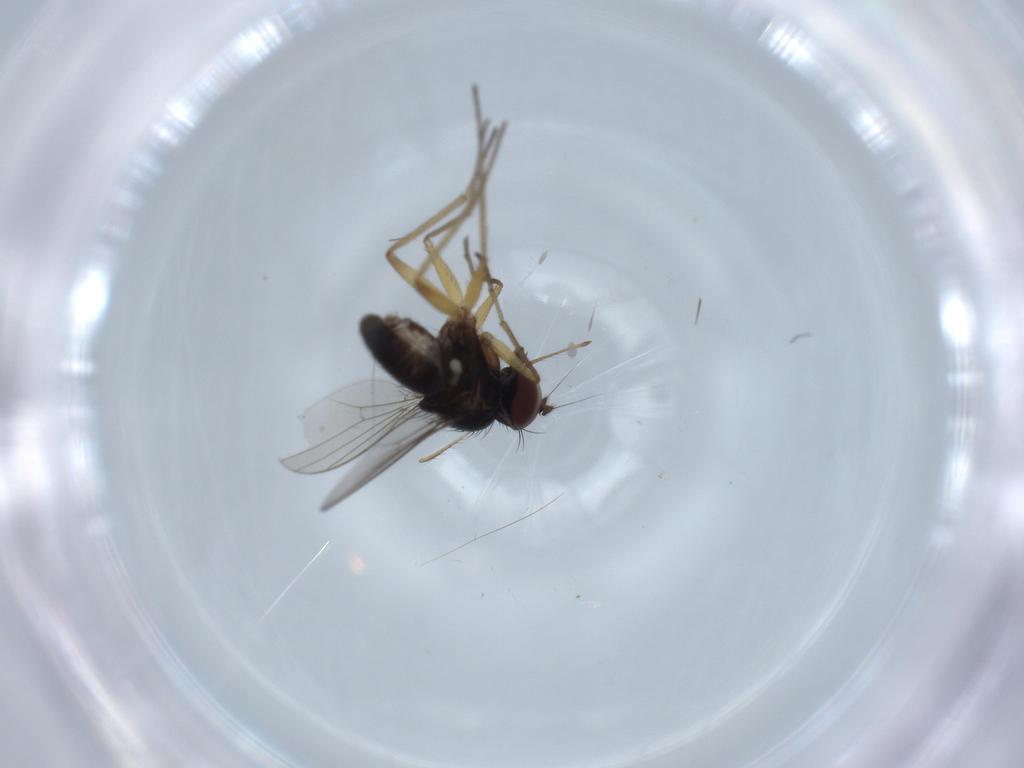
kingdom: Animalia
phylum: Arthropoda
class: Insecta
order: Diptera
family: Dolichopodidae
